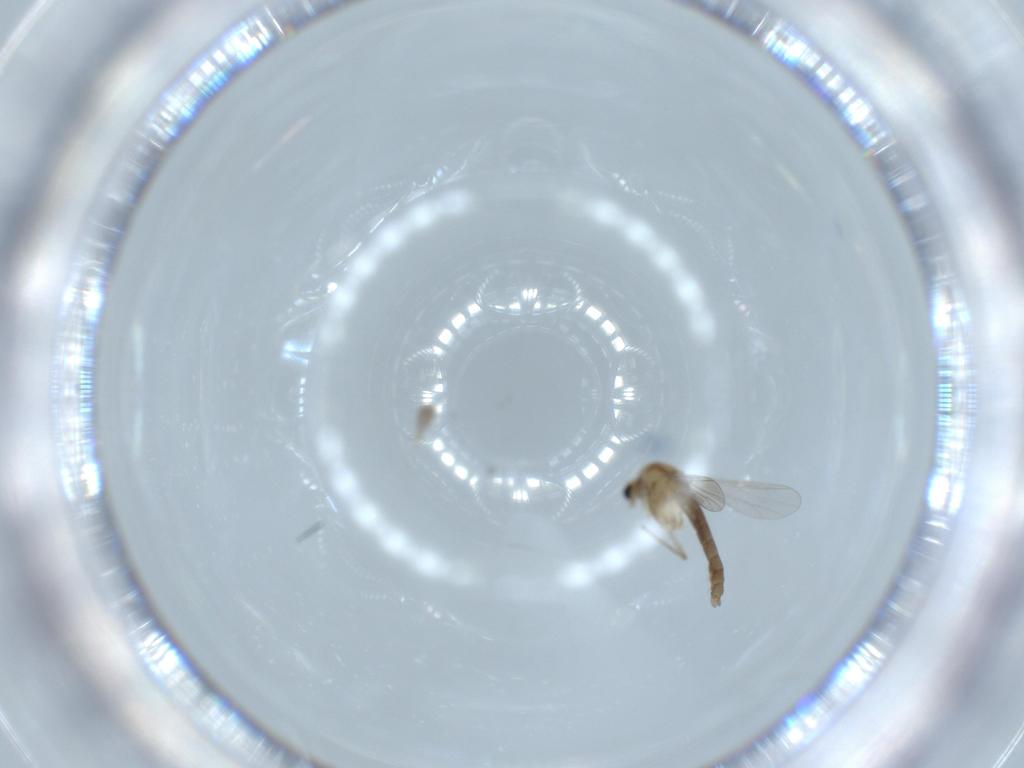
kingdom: Animalia
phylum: Arthropoda
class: Insecta
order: Diptera
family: Chironomidae
